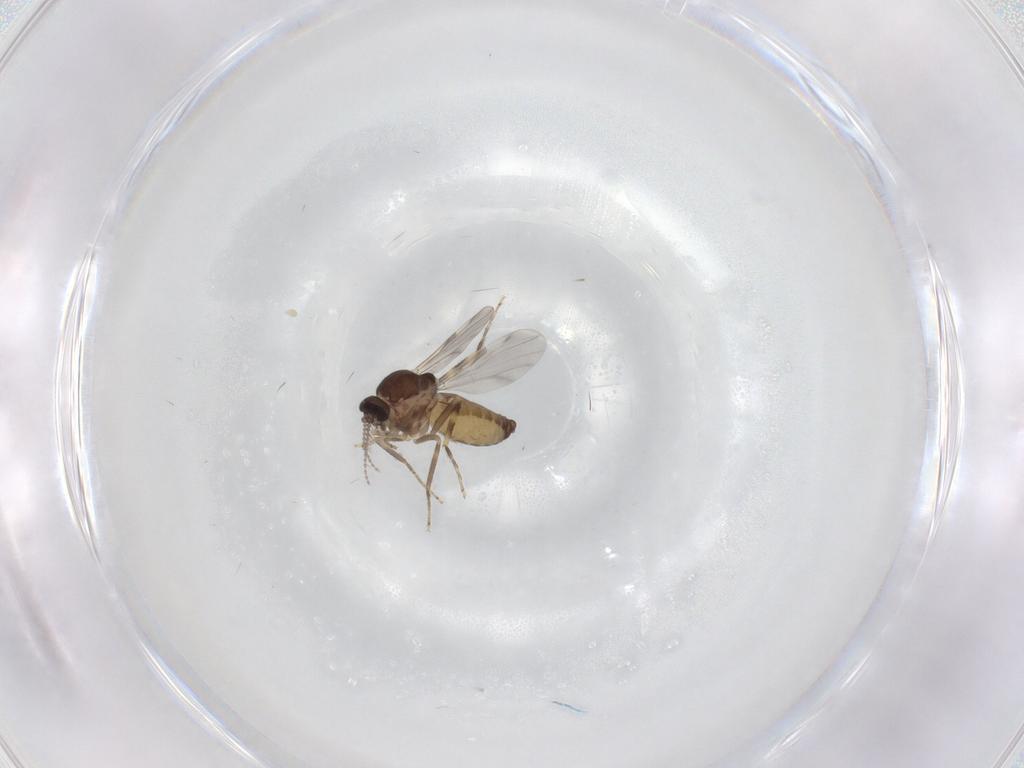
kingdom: Animalia
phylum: Arthropoda
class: Insecta
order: Diptera
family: Ceratopogonidae
